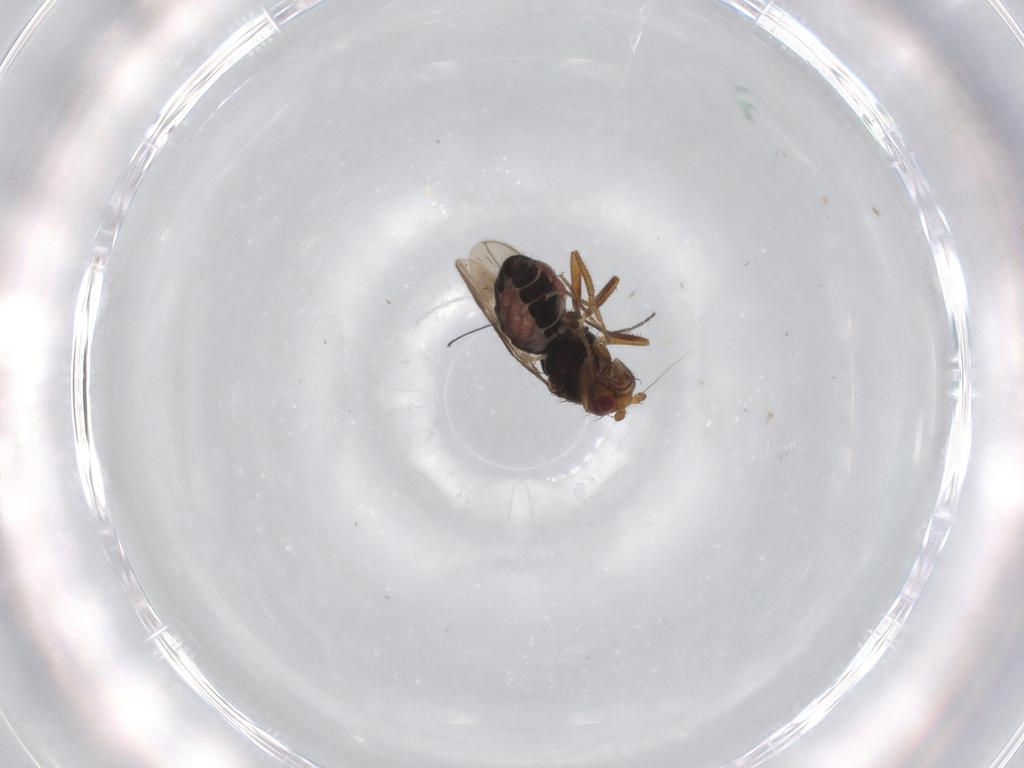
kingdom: Animalia
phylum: Arthropoda
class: Insecta
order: Diptera
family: Sphaeroceridae
